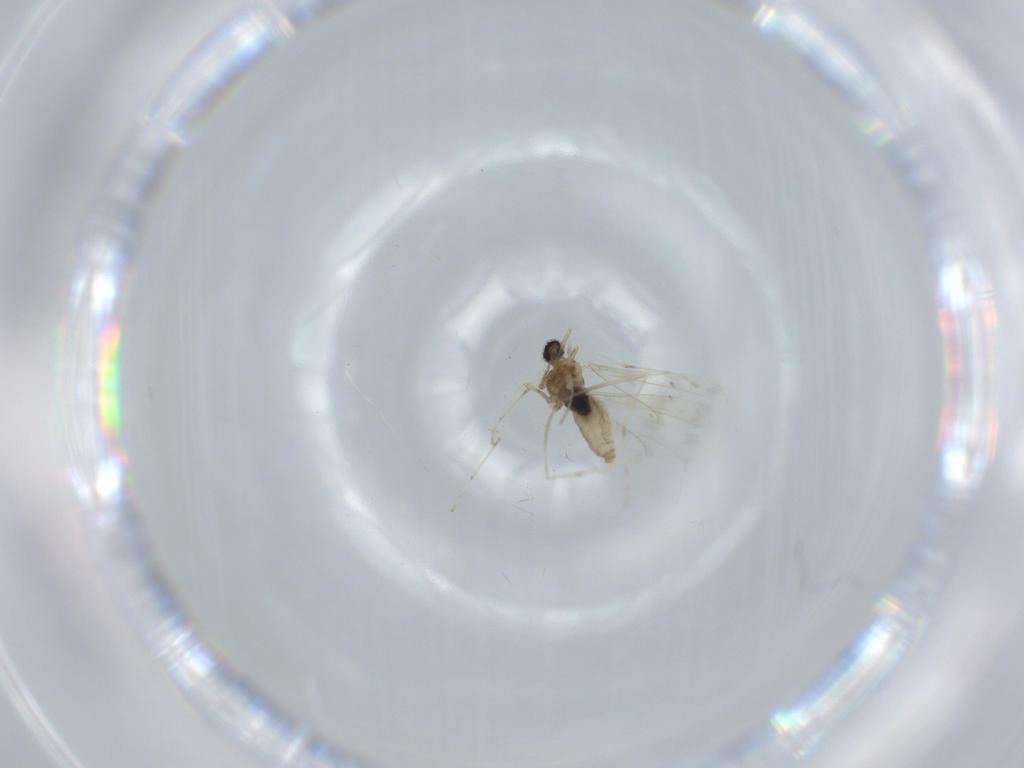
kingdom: Animalia
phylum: Arthropoda
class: Insecta
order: Diptera
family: Cecidomyiidae
